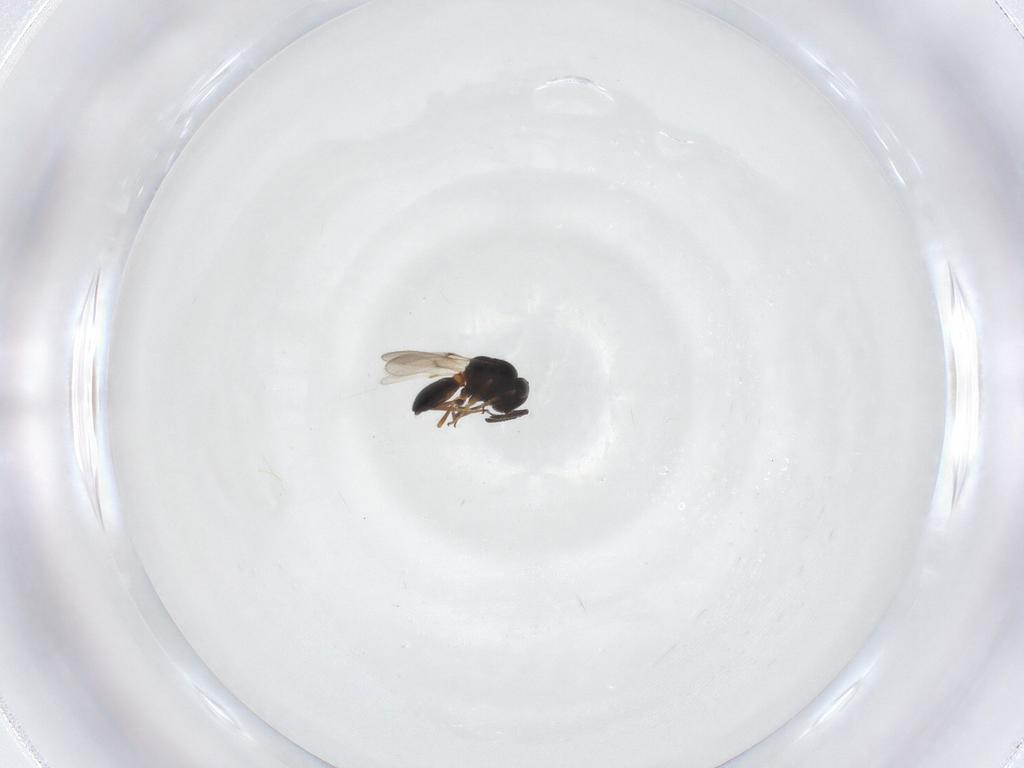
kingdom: Animalia
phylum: Arthropoda
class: Arachnida
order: Araneae
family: Pholcidae
